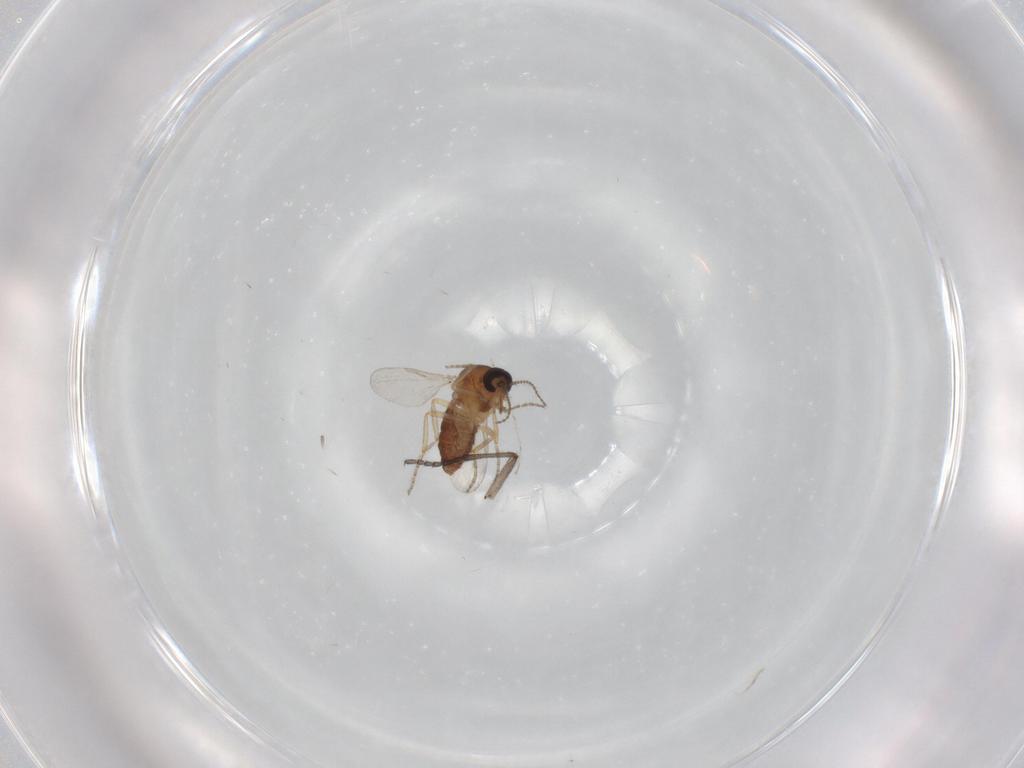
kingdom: Animalia
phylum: Arthropoda
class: Insecta
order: Diptera
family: Sciaridae
